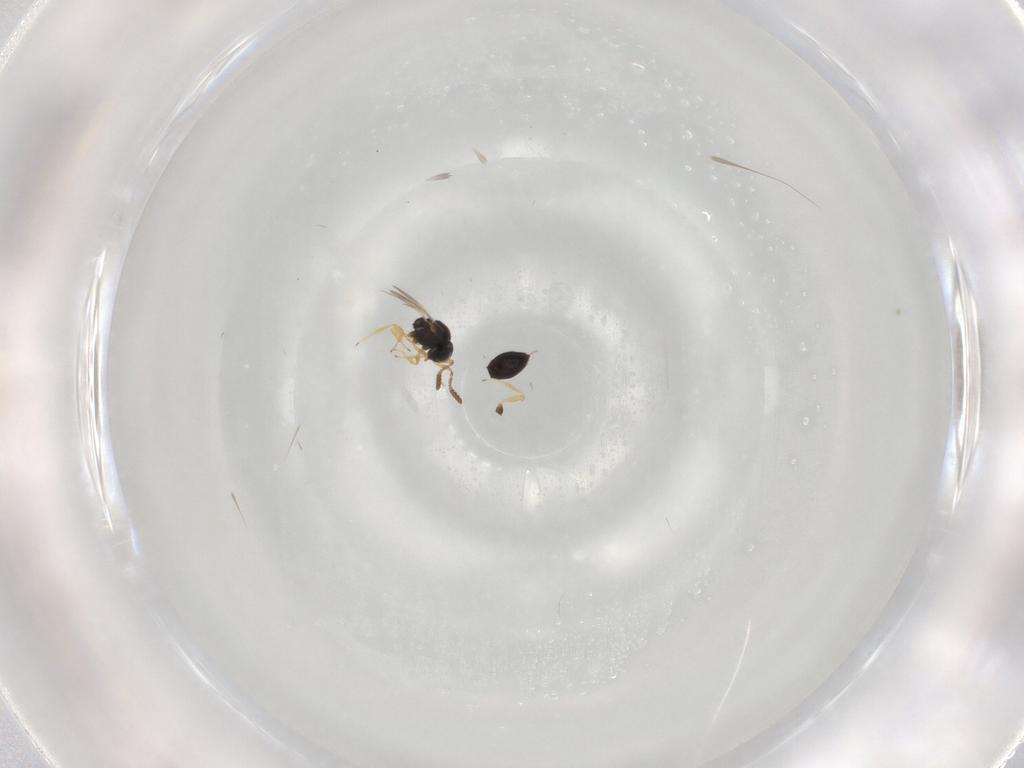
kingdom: Animalia
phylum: Arthropoda
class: Insecta
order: Hymenoptera
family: Scelionidae
